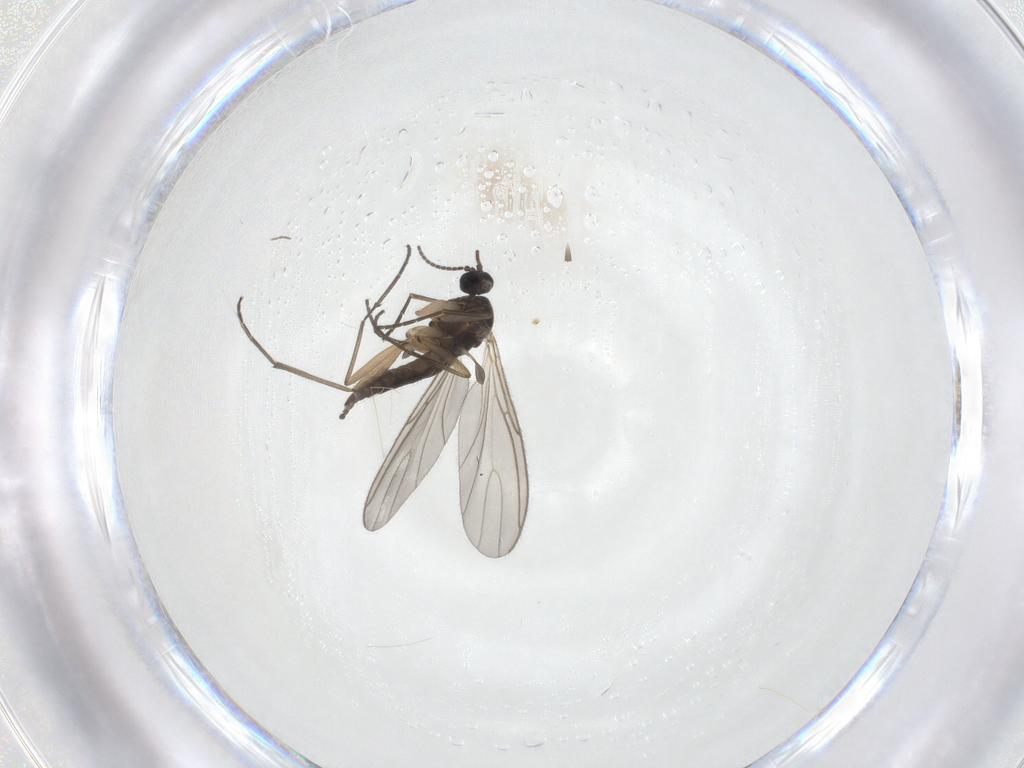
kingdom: Animalia
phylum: Arthropoda
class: Insecta
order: Diptera
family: Sciaridae
